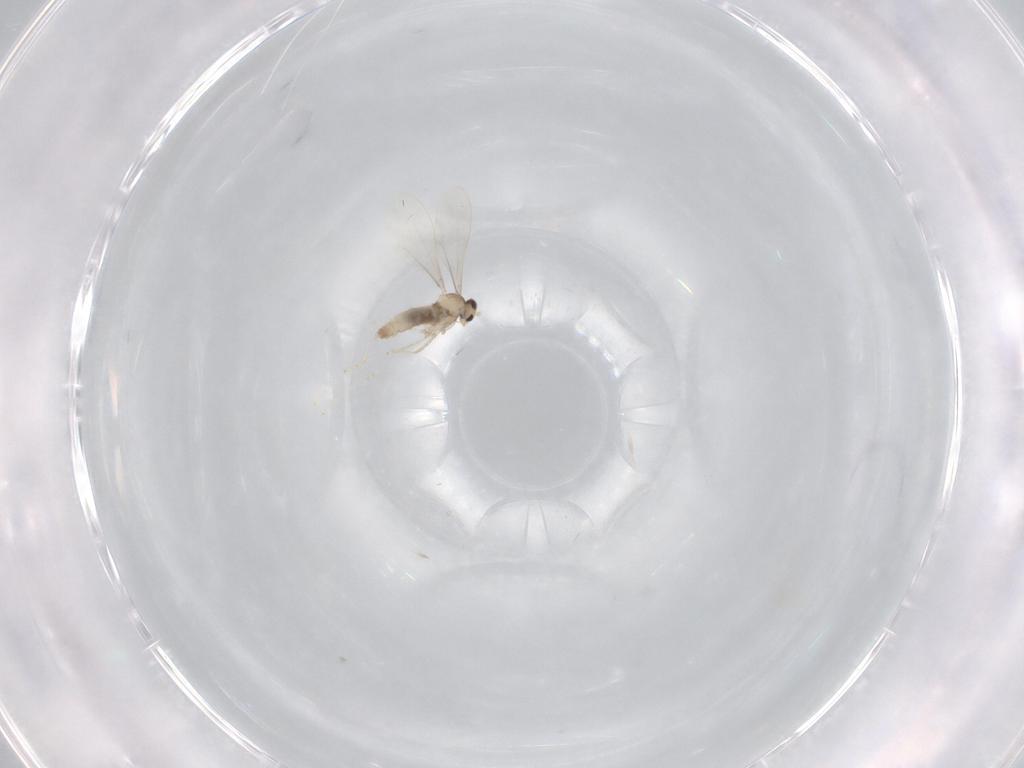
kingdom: Animalia
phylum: Arthropoda
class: Insecta
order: Diptera
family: Cecidomyiidae
